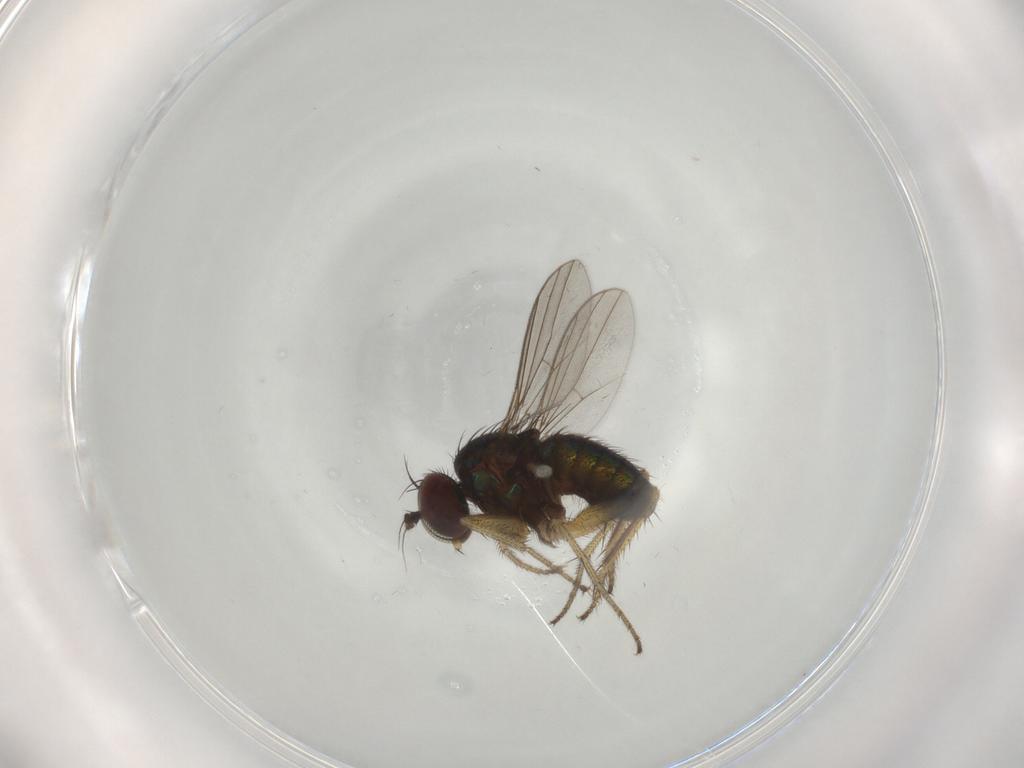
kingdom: Animalia
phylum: Arthropoda
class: Insecta
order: Diptera
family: Dolichopodidae
